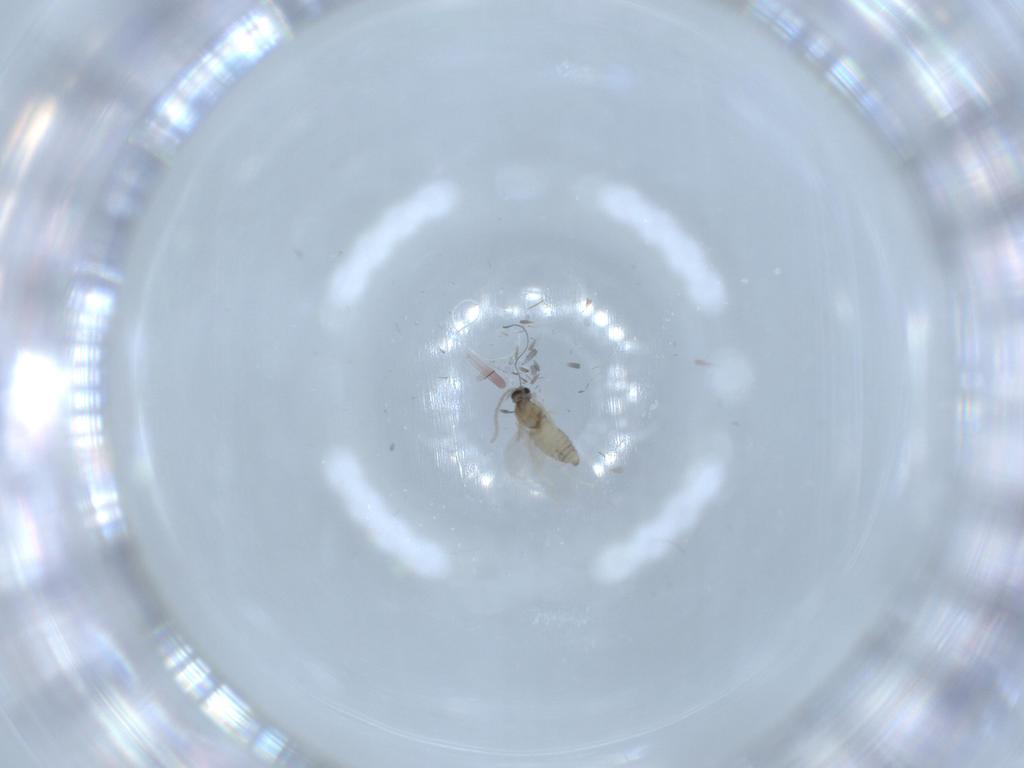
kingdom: Animalia
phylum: Arthropoda
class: Insecta
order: Diptera
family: Cecidomyiidae
